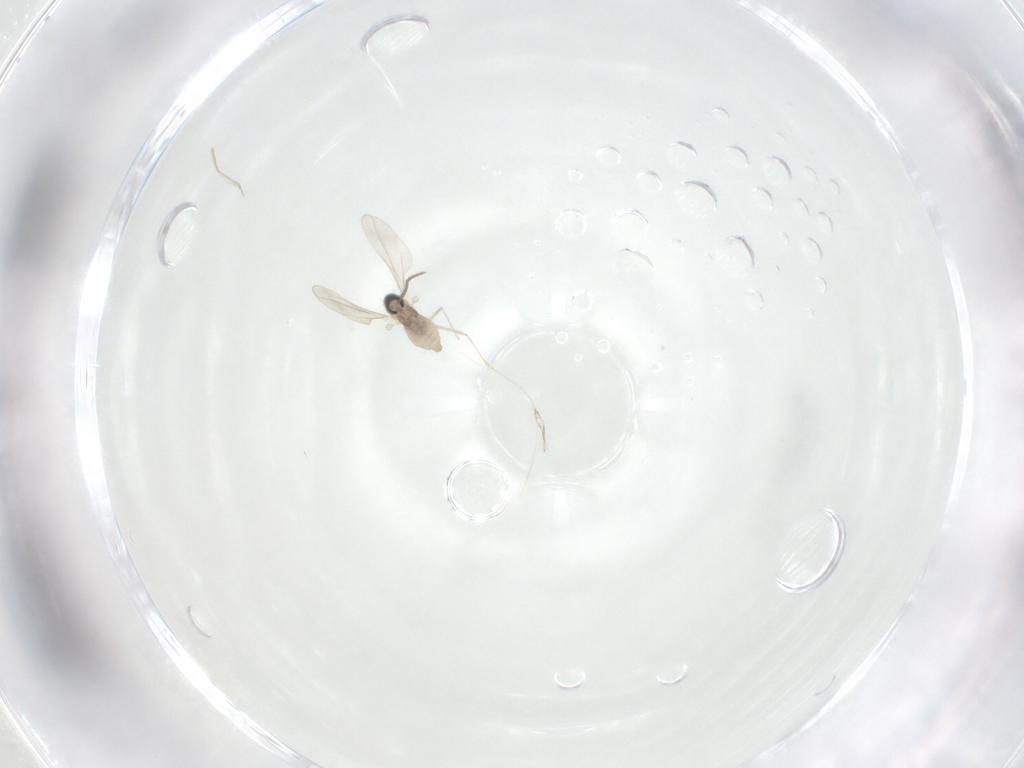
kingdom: Animalia
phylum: Arthropoda
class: Insecta
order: Diptera
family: Cecidomyiidae
